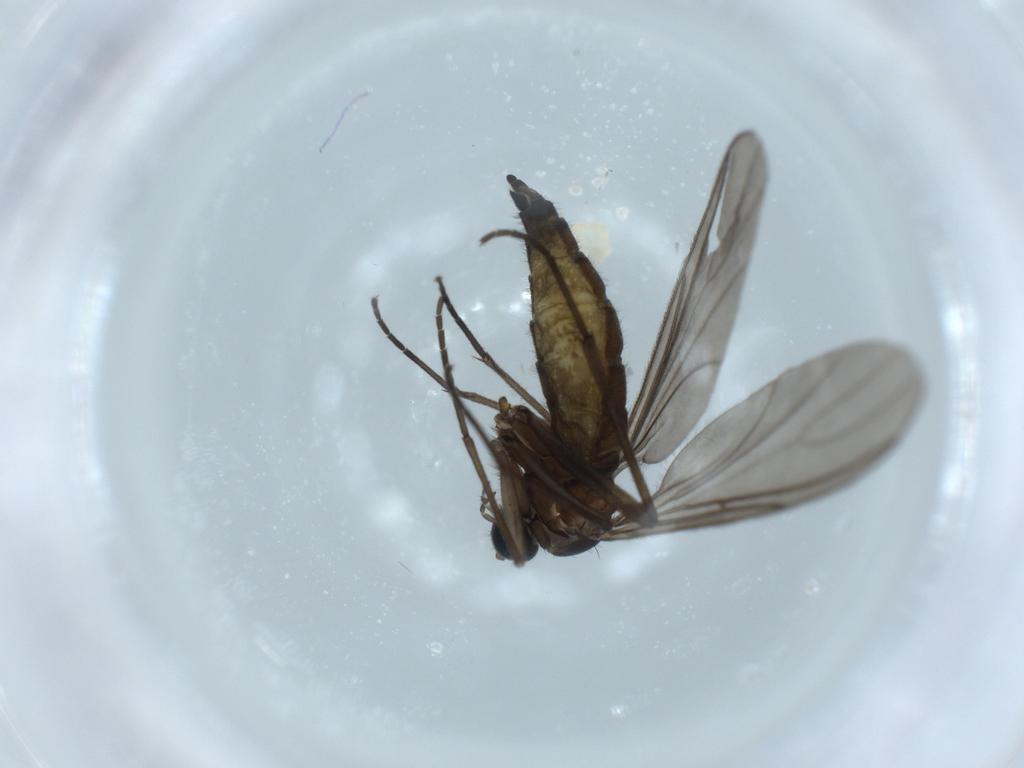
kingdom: Animalia
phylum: Arthropoda
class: Insecta
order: Diptera
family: Sciaridae
